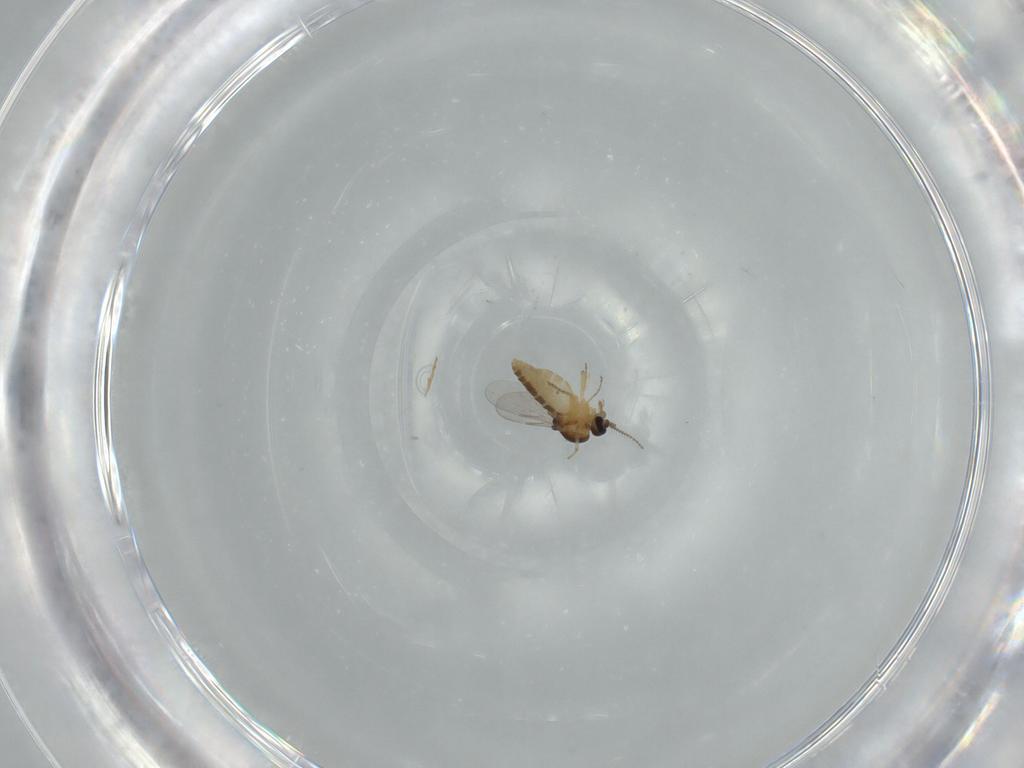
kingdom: Animalia
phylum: Arthropoda
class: Insecta
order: Diptera
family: Ceratopogonidae
